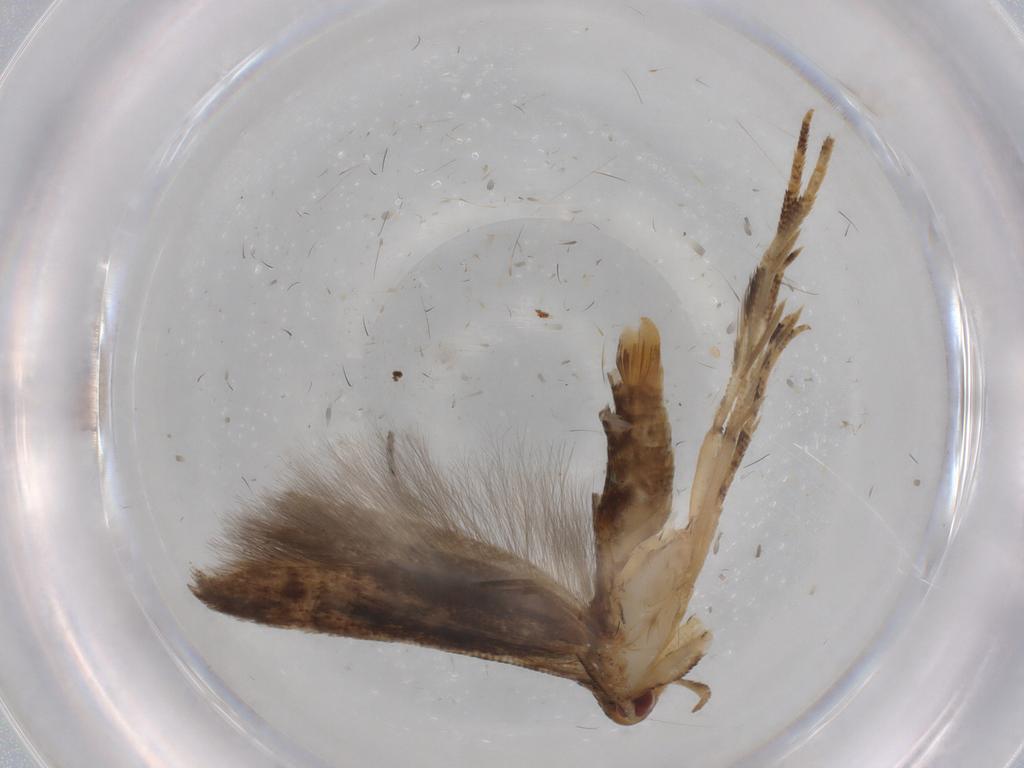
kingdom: Animalia
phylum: Arthropoda
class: Insecta
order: Lepidoptera
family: Tineidae
